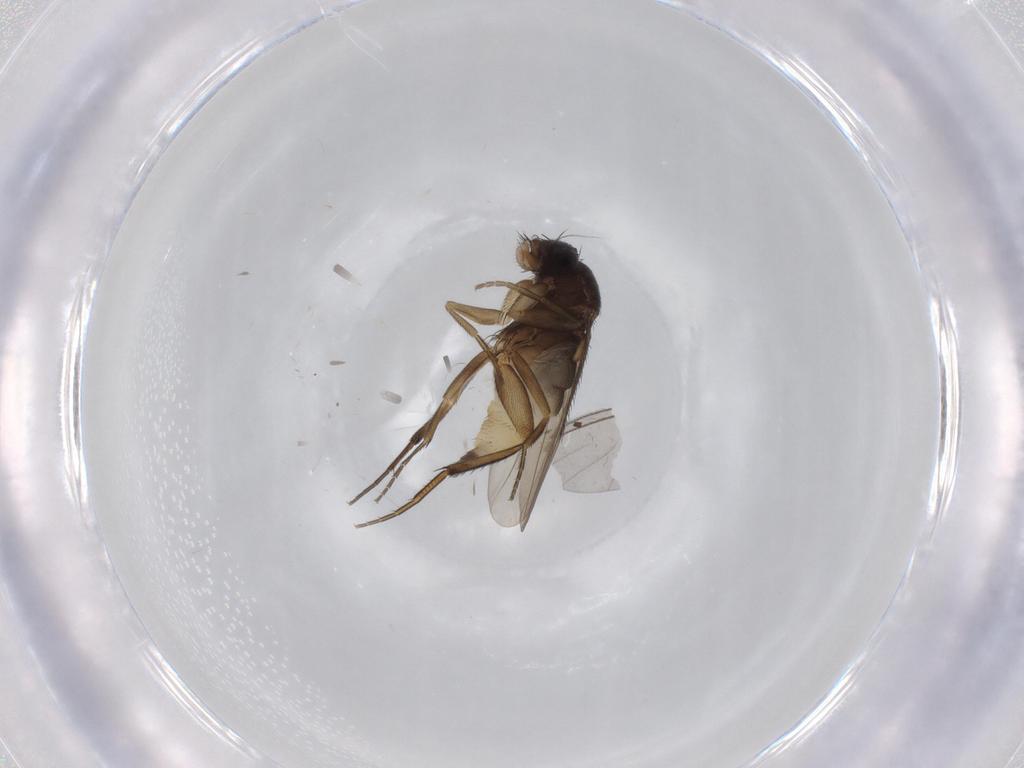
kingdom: Animalia
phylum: Arthropoda
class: Insecta
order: Diptera
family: Phoridae
